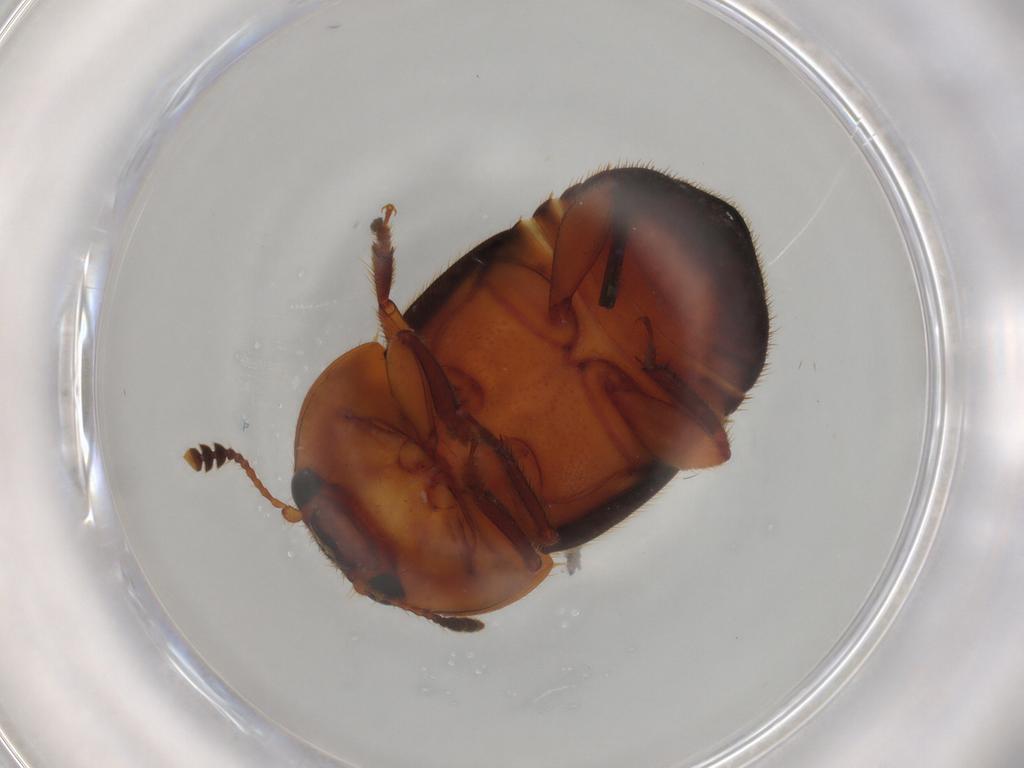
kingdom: Animalia
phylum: Arthropoda
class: Insecta
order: Coleoptera
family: Nitidulidae
